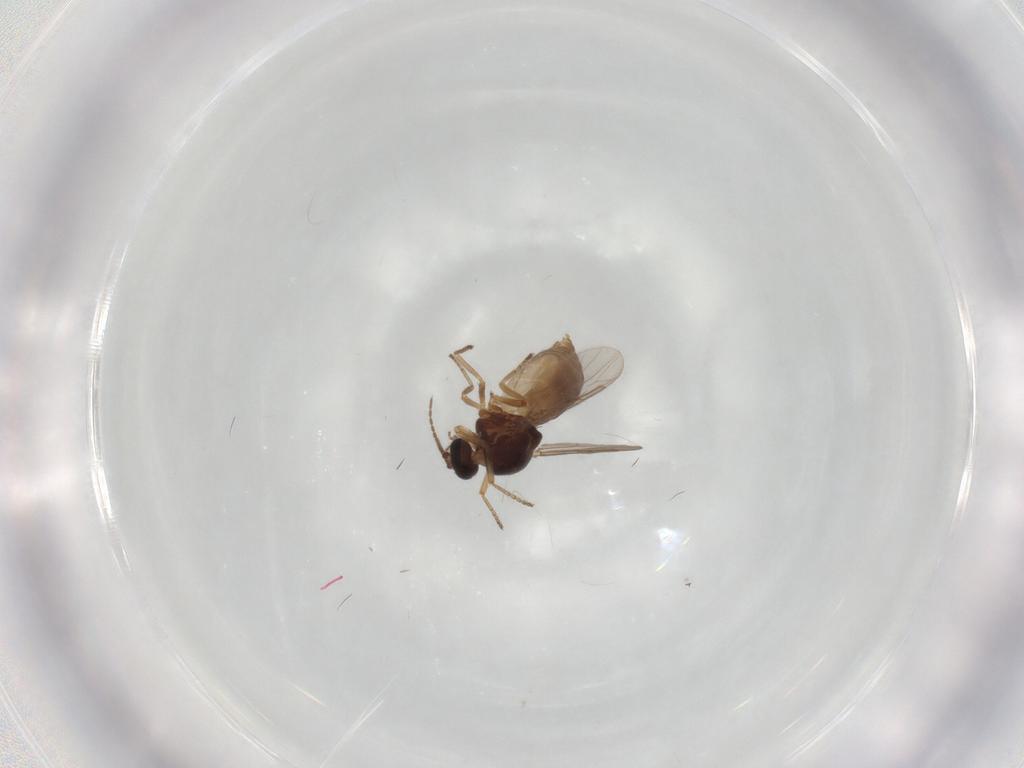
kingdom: Animalia
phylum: Arthropoda
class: Insecta
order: Diptera
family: Ceratopogonidae
